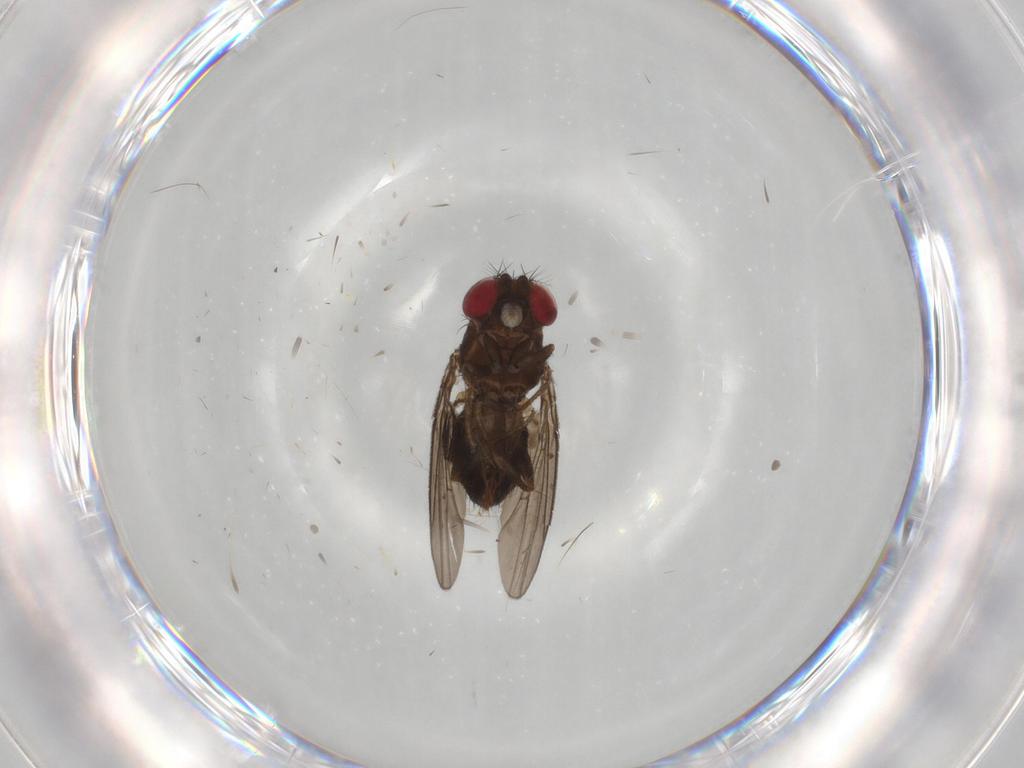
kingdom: Animalia
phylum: Arthropoda
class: Insecta
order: Diptera
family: Drosophilidae
